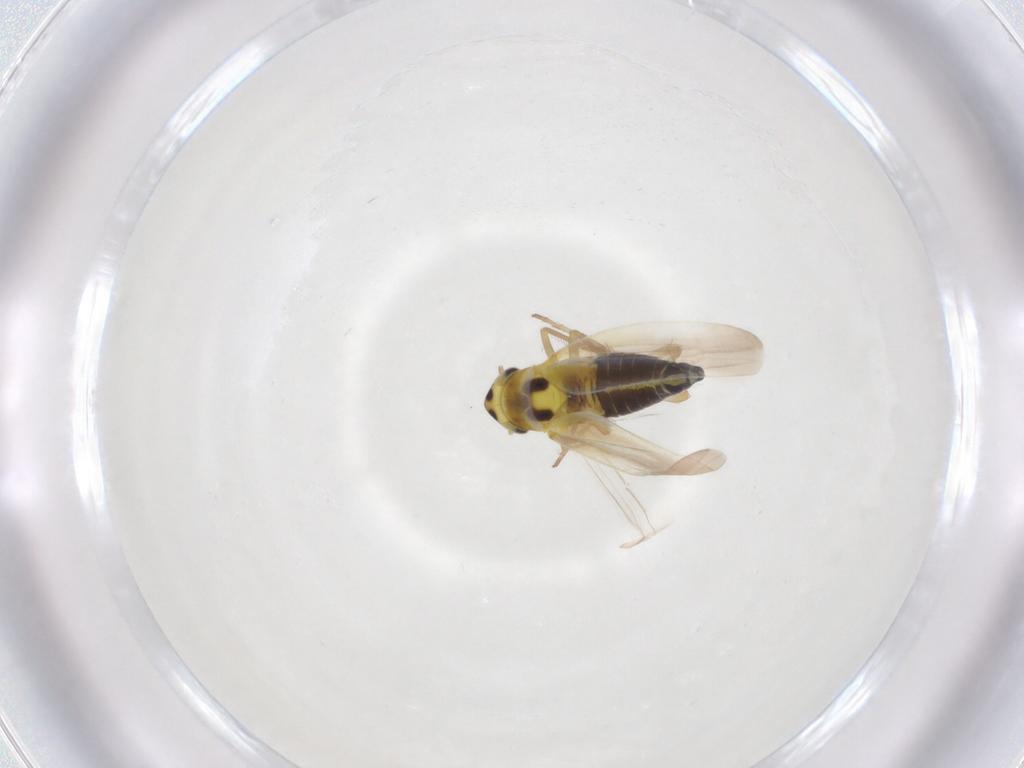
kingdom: Animalia
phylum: Arthropoda
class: Insecta
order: Hemiptera
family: Cicadellidae
